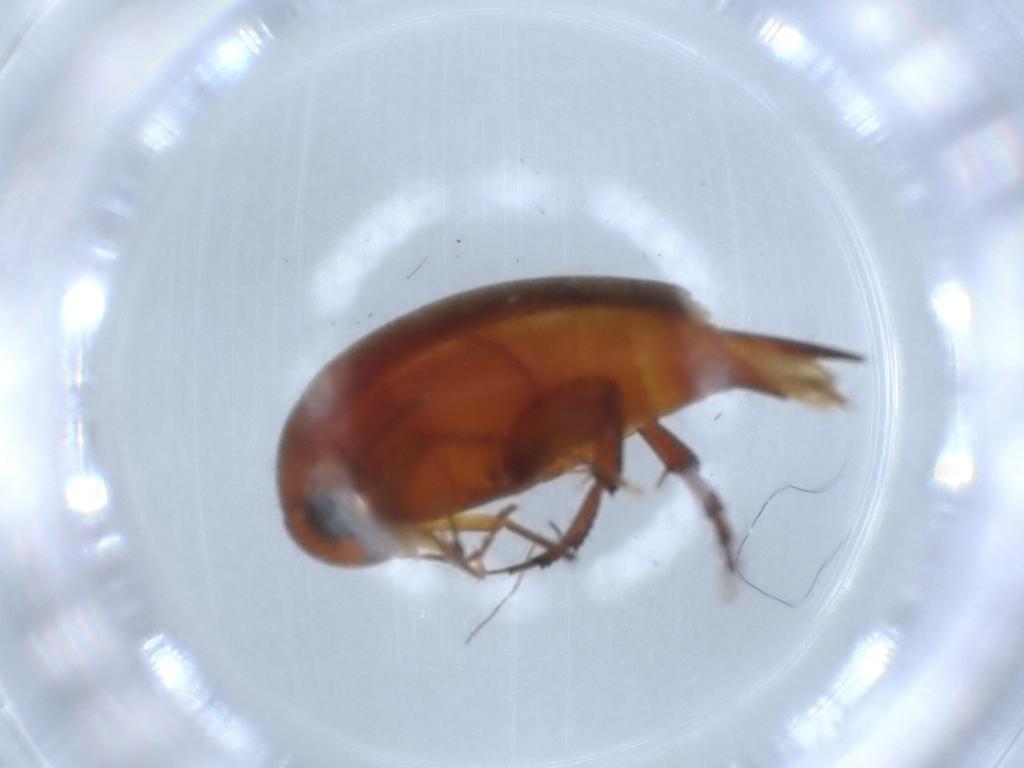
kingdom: Animalia
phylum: Arthropoda
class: Insecta
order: Coleoptera
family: Mordellidae
